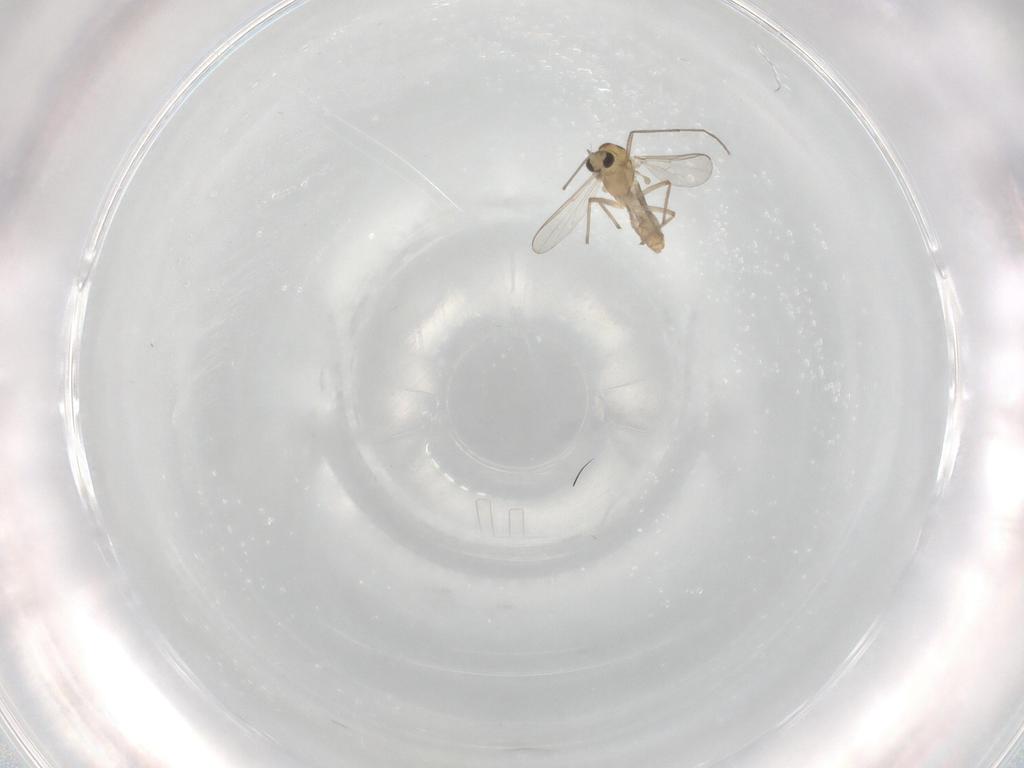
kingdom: Animalia
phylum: Arthropoda
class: Insecta
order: Diptera
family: Chironomidae
